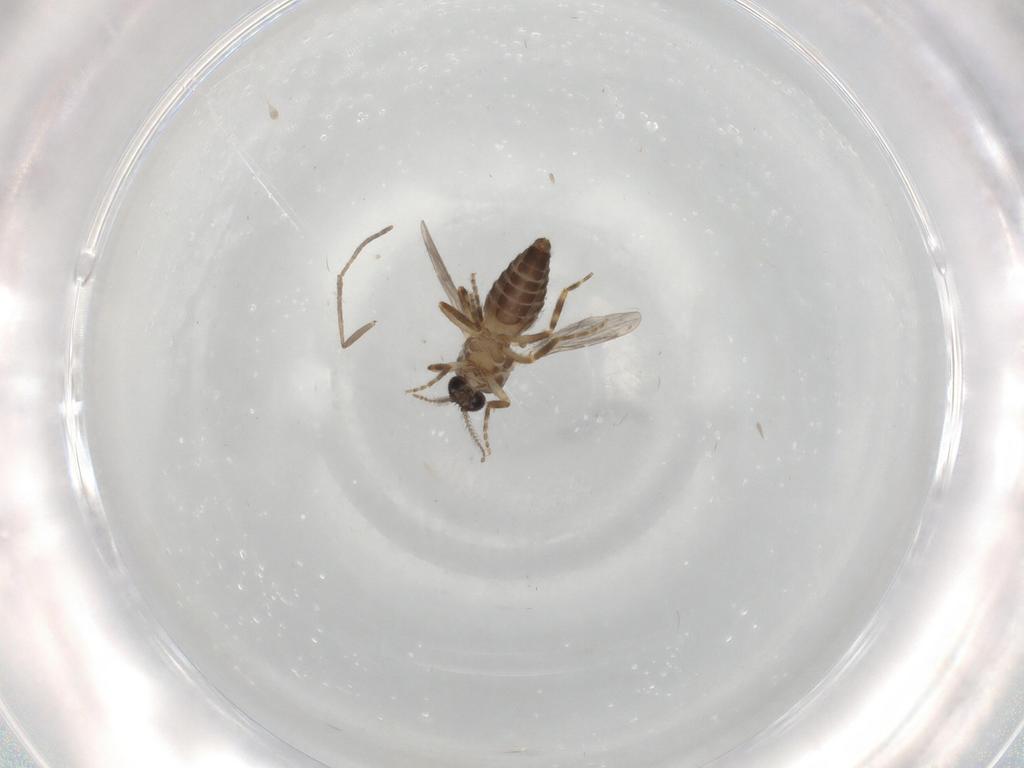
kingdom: Animalia
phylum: Arthropoda
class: Insecta
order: Diptera
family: Ceratopogonidae
